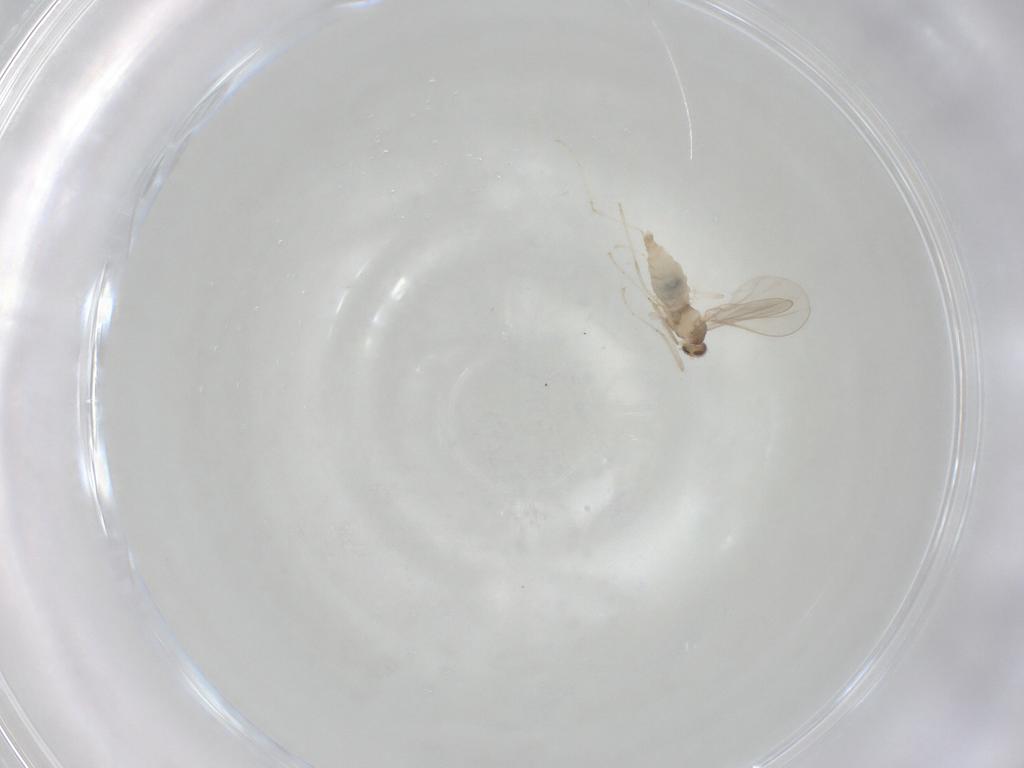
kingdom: Animalia
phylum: Arthropoda
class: Insecta
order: Diptera
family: Cecidomyiidae
